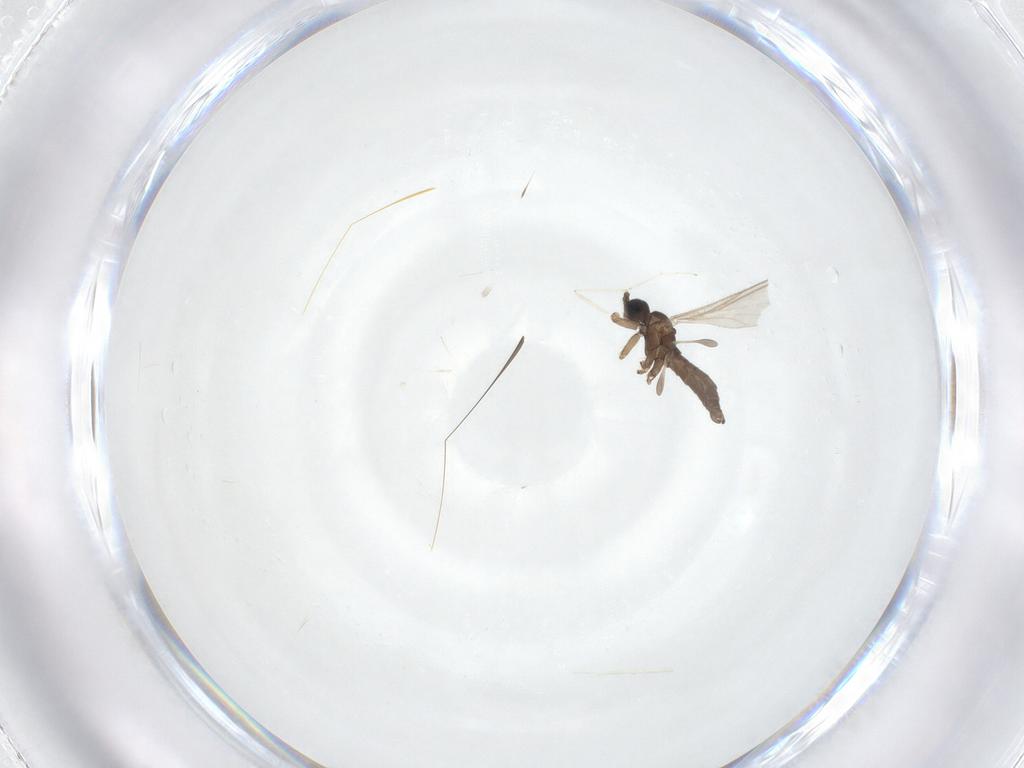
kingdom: Animalia
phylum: Arthropoda
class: Insecta
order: Diptera
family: Sciaridae
